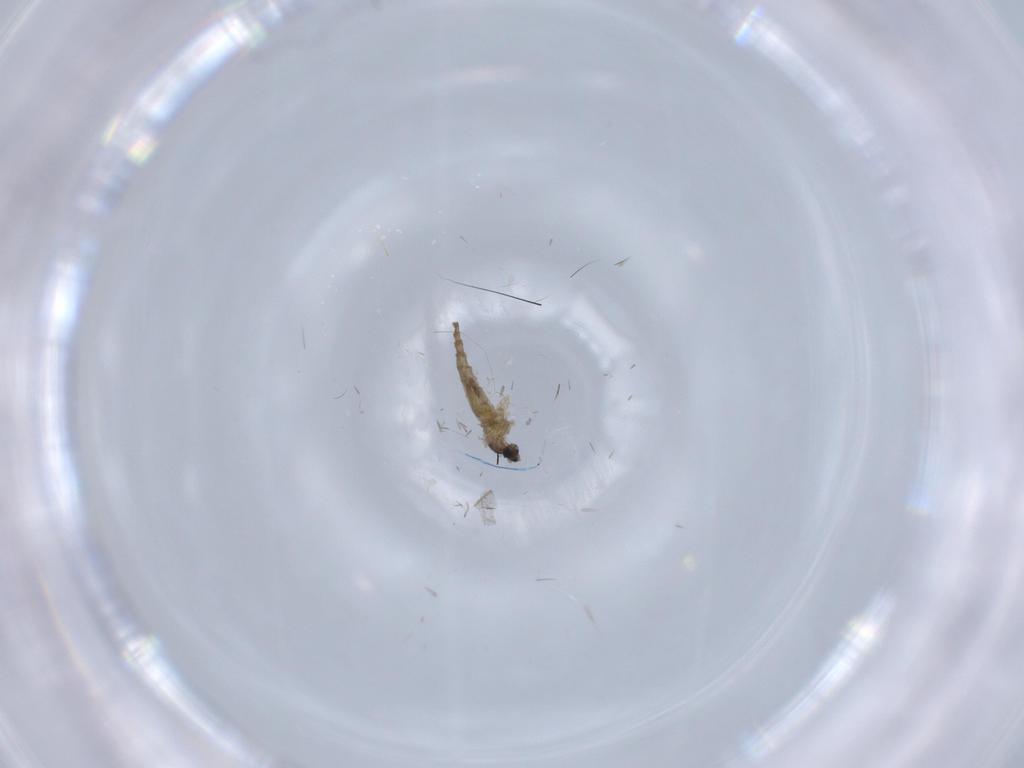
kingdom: Animalia
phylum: Arthropoda
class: Insecta
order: Diptera
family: Cecidomyiidae
